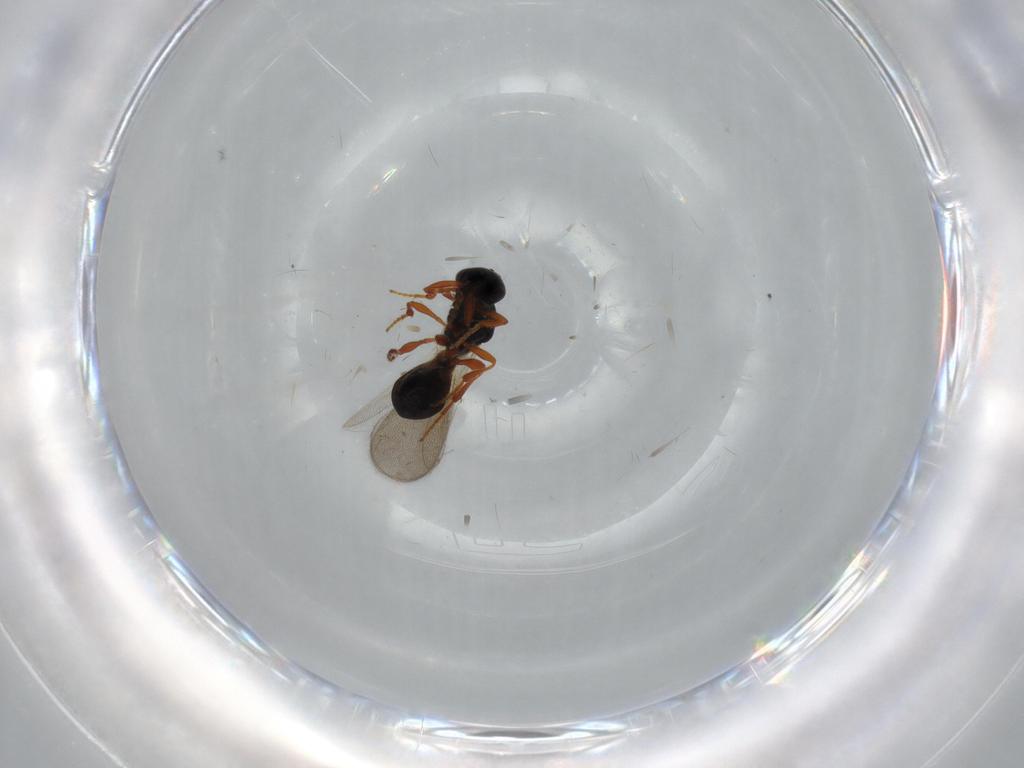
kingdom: Animalia
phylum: Arthropoda
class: Insecta
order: Hymenoptera
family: Platygastridae
